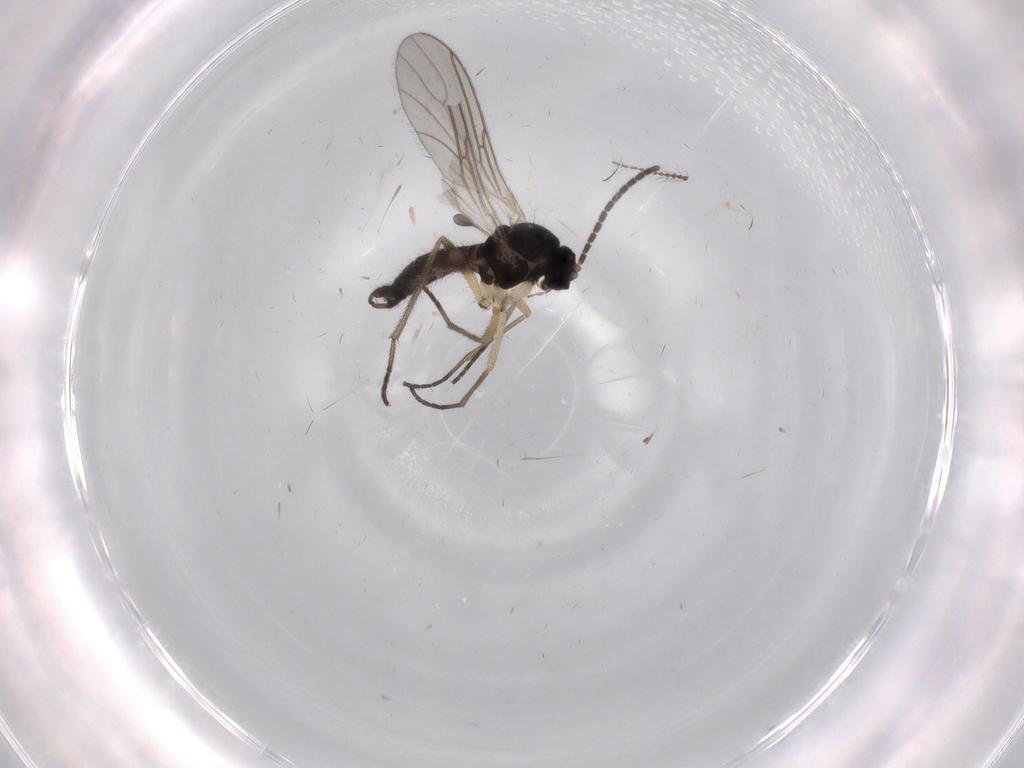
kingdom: Animalia
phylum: Arthropoda
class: Insecta
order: Diptera
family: Sciaridae
